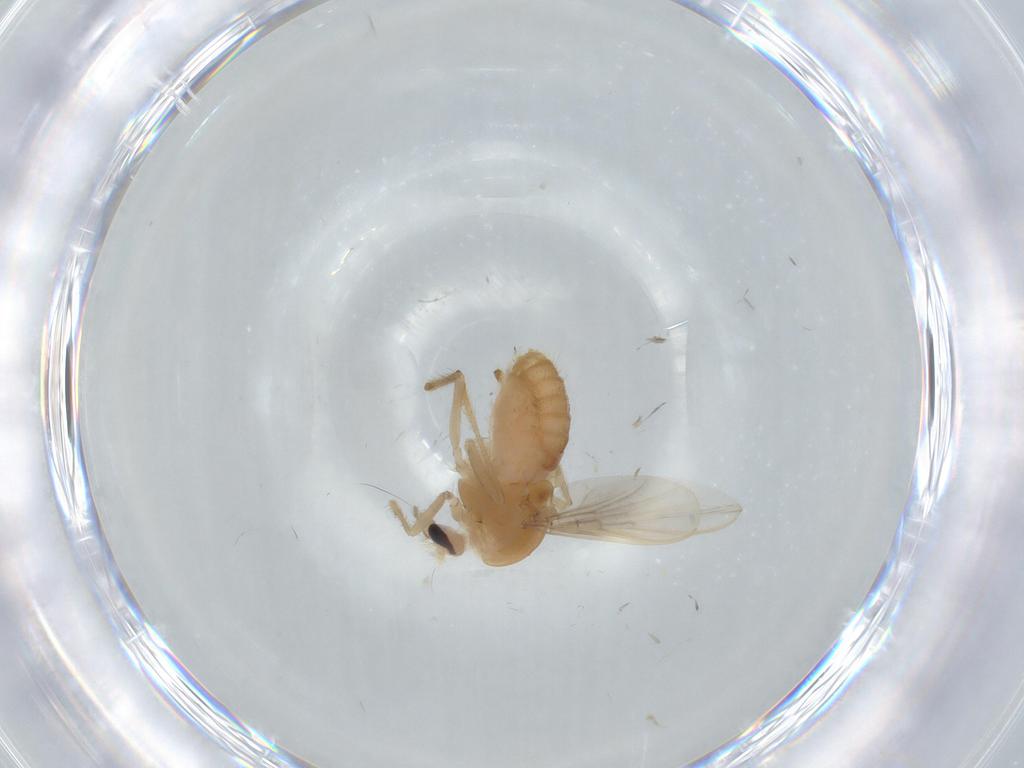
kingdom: Animalia
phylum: Arthropoda
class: Insecta
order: Diptera
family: Chironomidae
